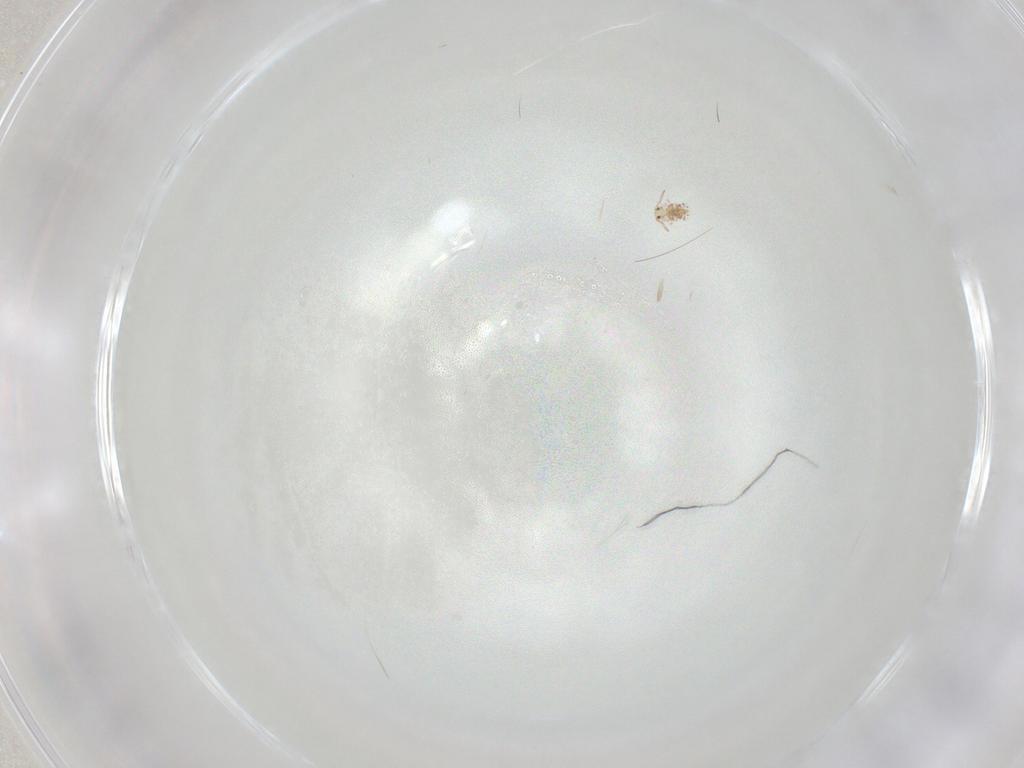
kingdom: Animalia
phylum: Arthropoda
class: Collembola
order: Symphypleona
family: Bourletiellidae
